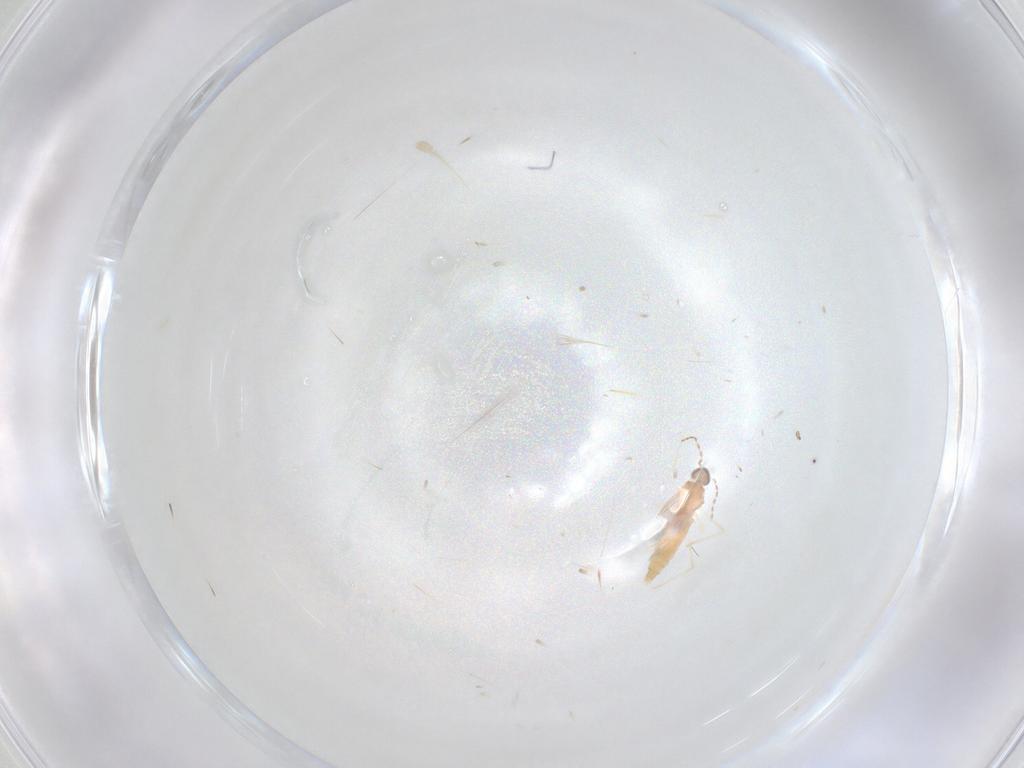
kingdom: Animalia
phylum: Arthropoda
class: Insecta
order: Diptera
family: Cecidomyiidae
